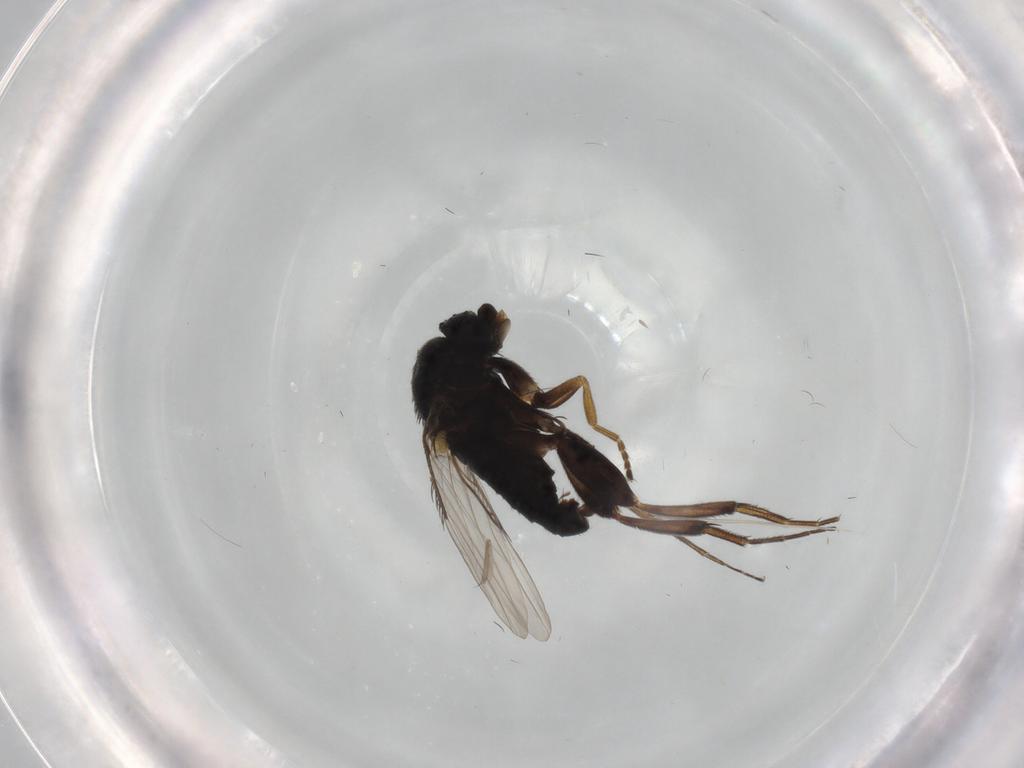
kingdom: Animalia
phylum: Arthropoda
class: Insecta
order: Diptera
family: Phoridae
